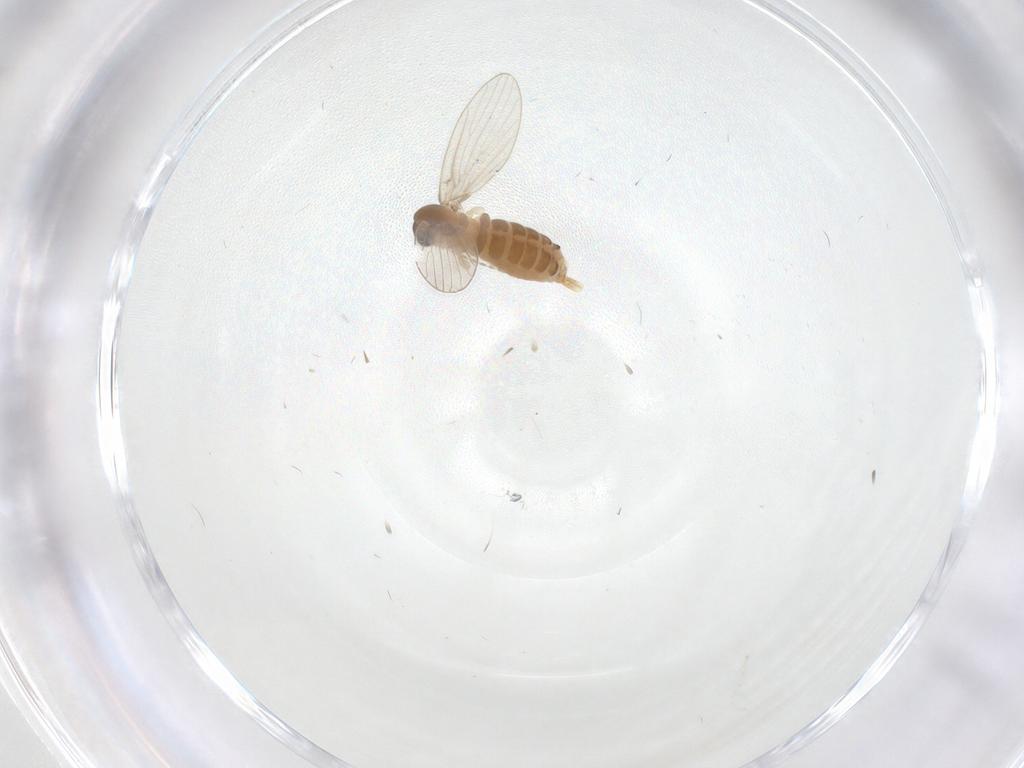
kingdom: Animalia
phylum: Arthropoda
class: Insecta
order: Diptera
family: Psychodidae
